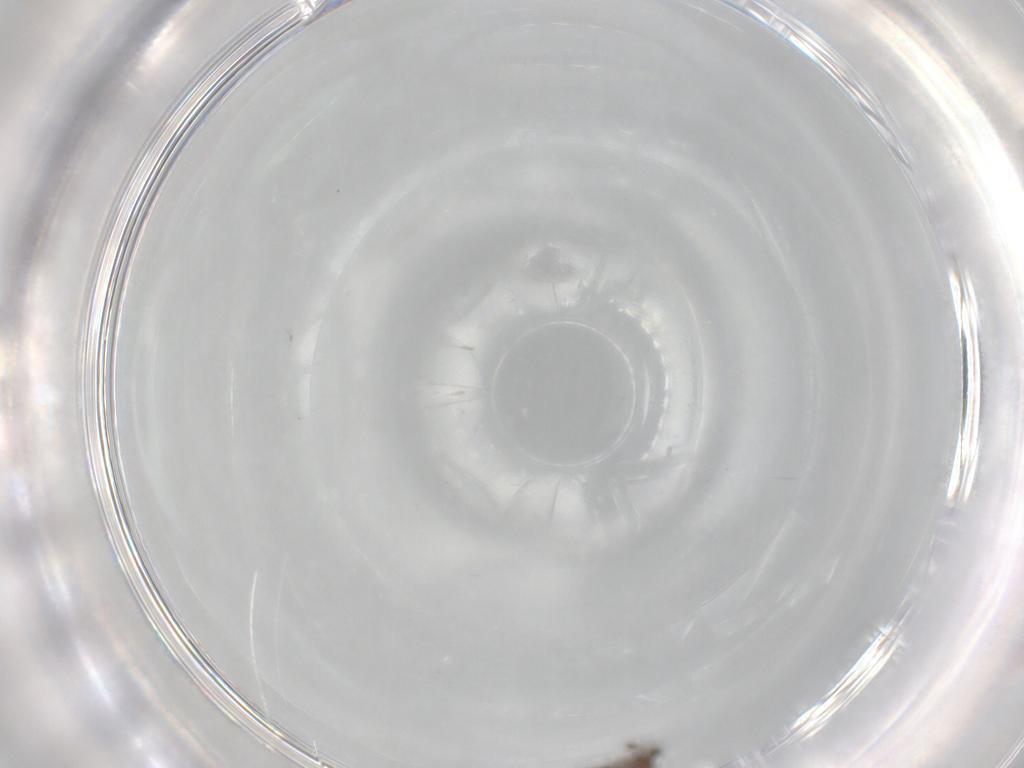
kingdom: Animalia
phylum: Arthropoda
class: Insecta
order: Diptera
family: Chironomidae
